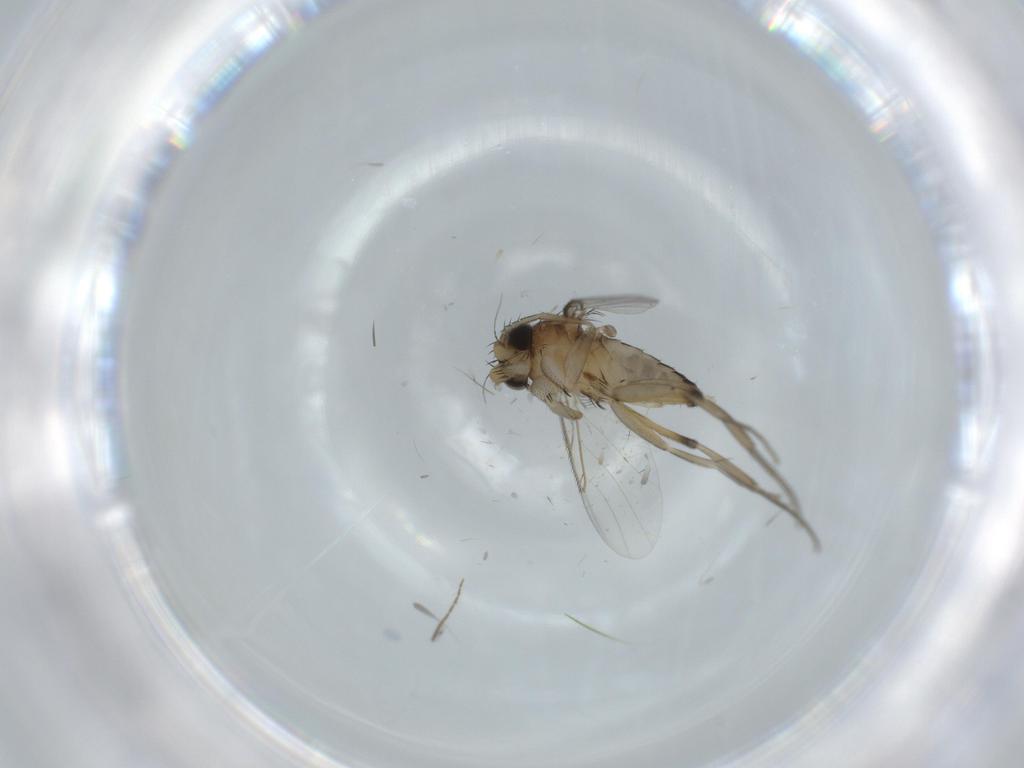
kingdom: Animalia
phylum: Arthropoda
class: Insecta
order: Diptera
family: Phoridae
